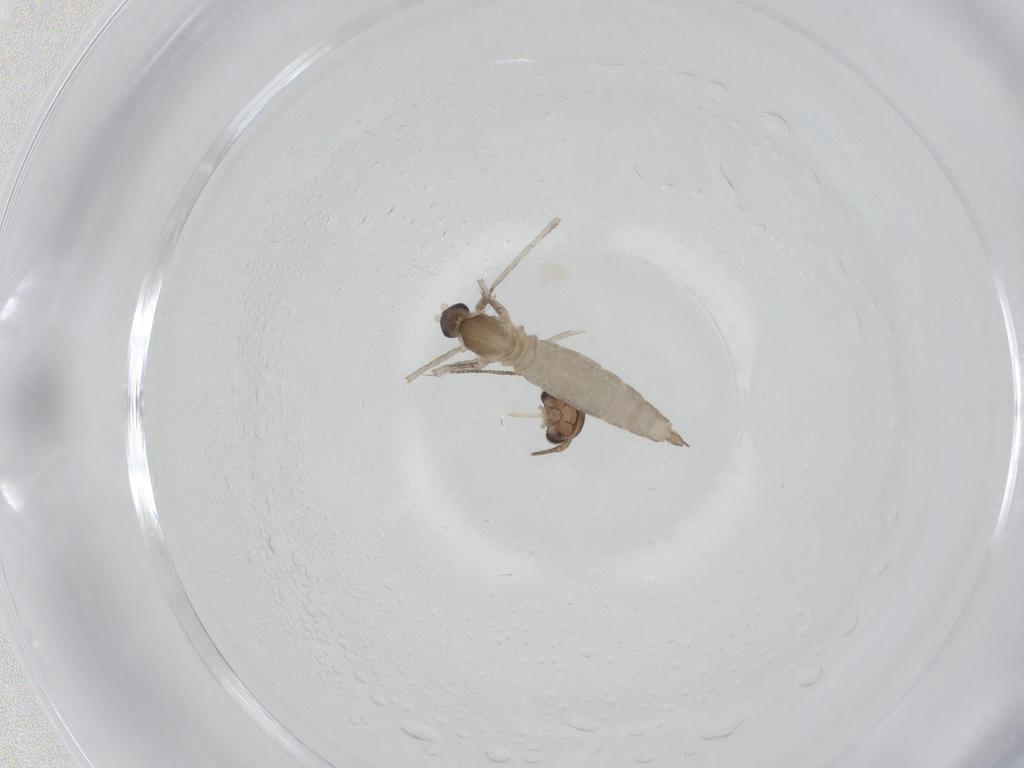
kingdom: Animalia
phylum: Arthropoda
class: Insecta
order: Diptera
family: Cecidomyiidae
